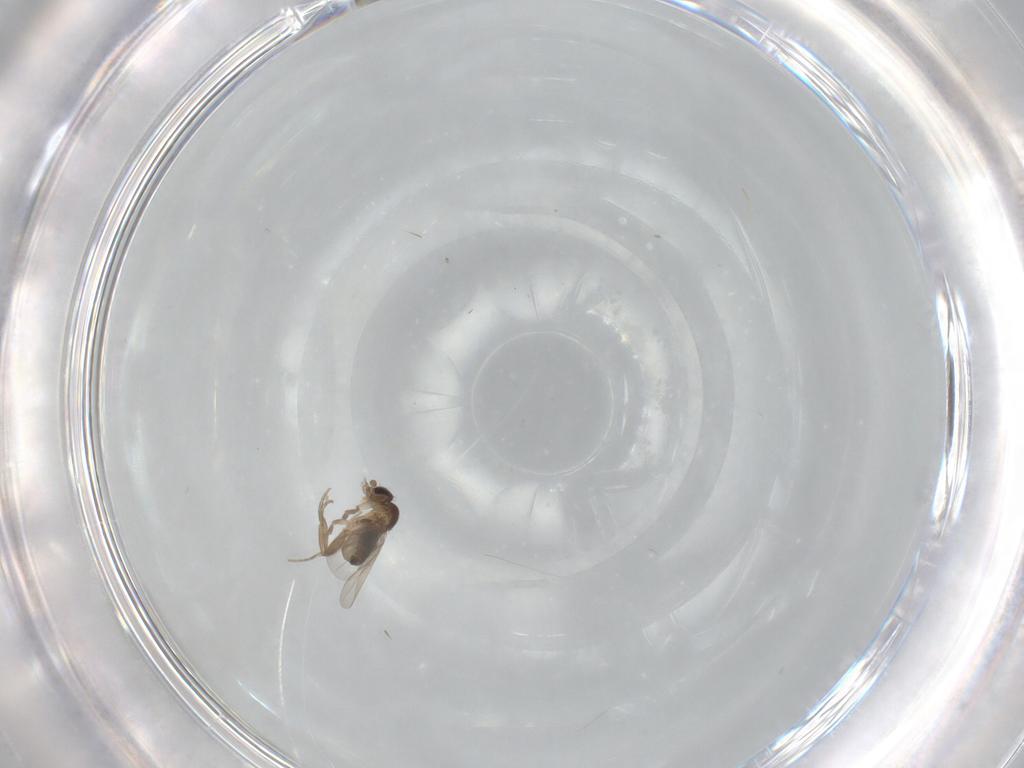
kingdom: Animalia
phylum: Arthropoda
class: Insecta
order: Diptera
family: Phoridae
